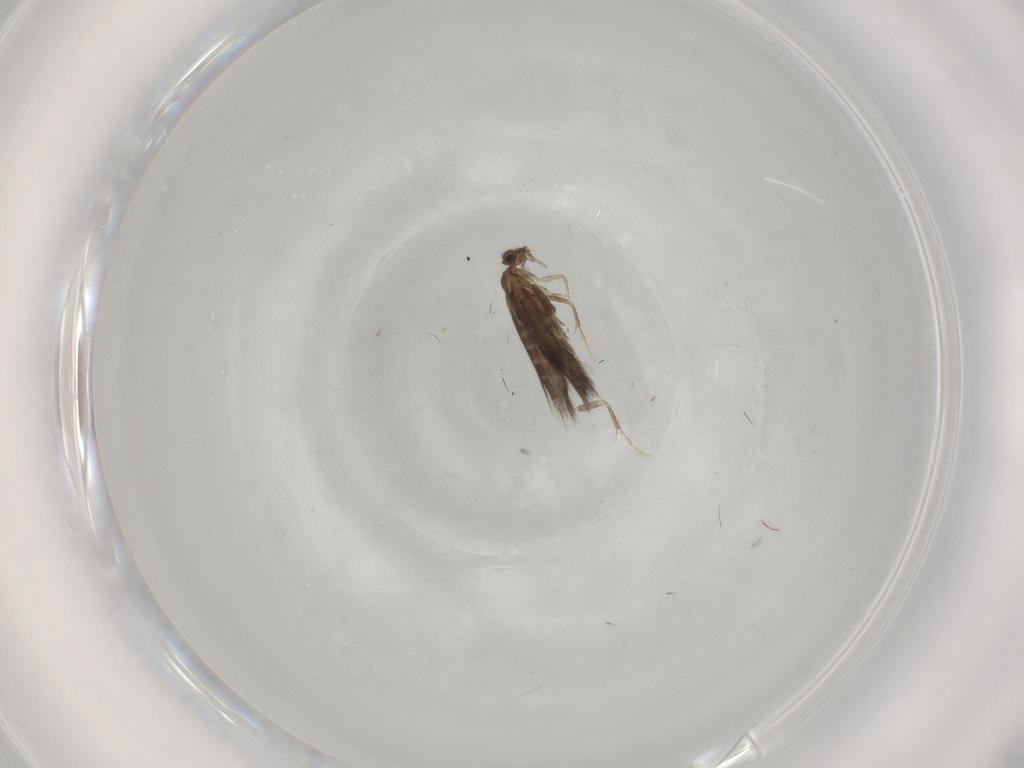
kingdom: Animalia
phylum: Arthropoda
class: Insecta
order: Trichoptera
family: Hydroptilidae
